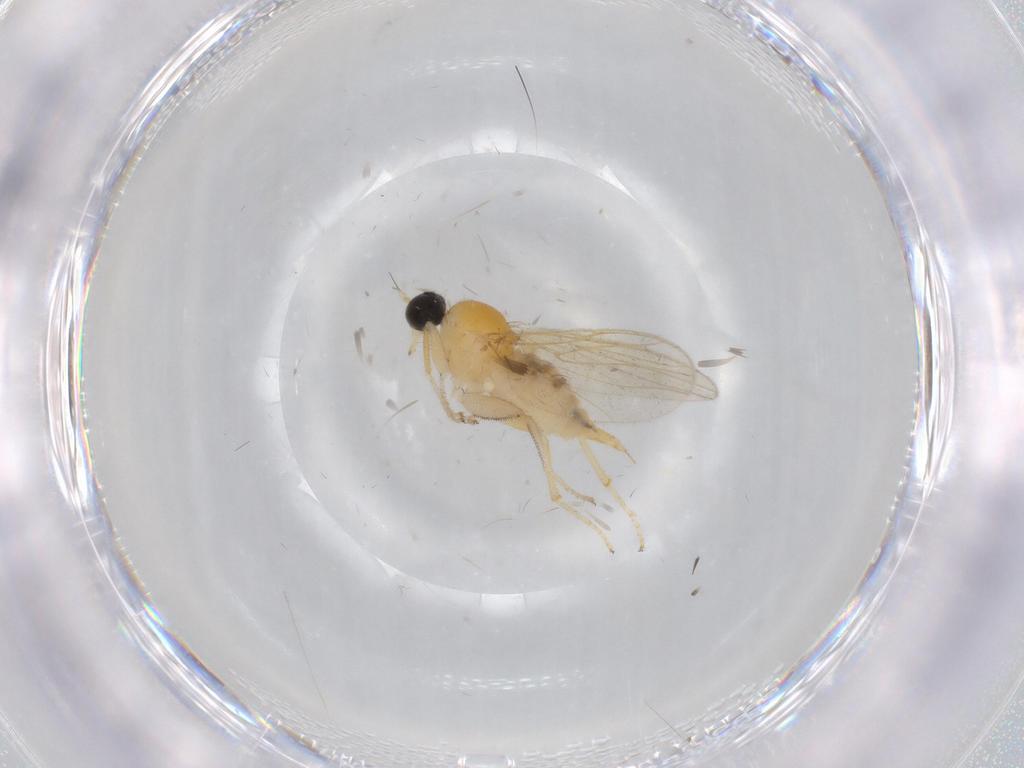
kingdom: Animalia
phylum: Arthropoda
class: Insecta
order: Diptera
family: Hybotidae
